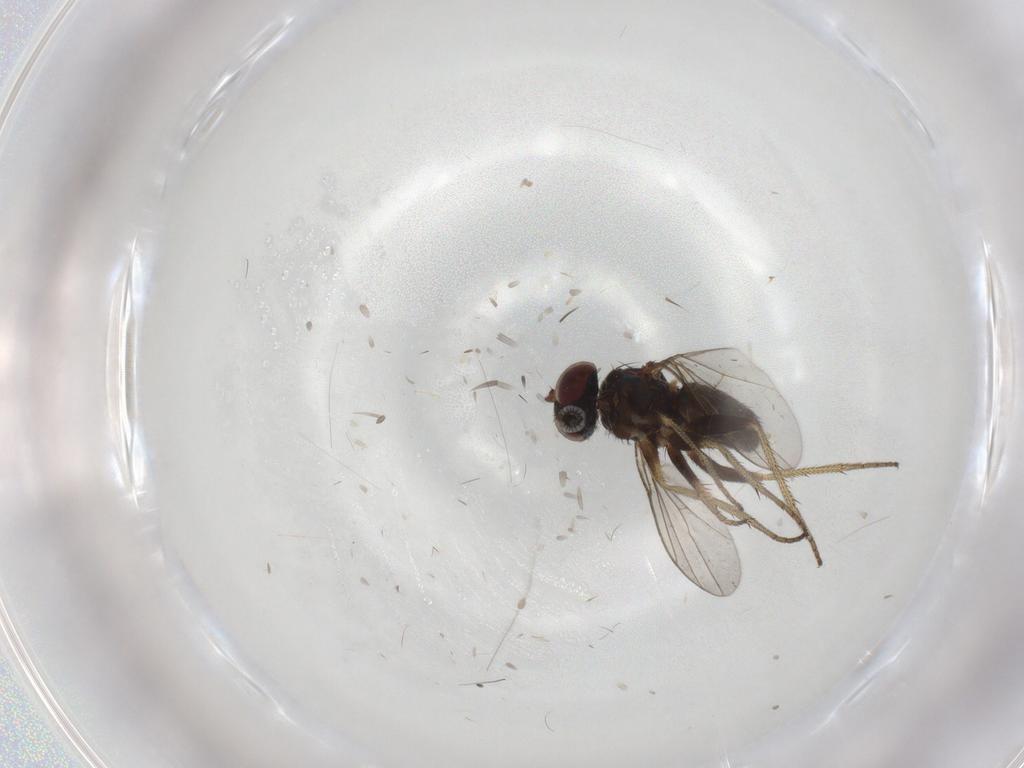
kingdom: Animalia
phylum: Arthropoda
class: Insecta
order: Diptera
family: Dolichopodidae
